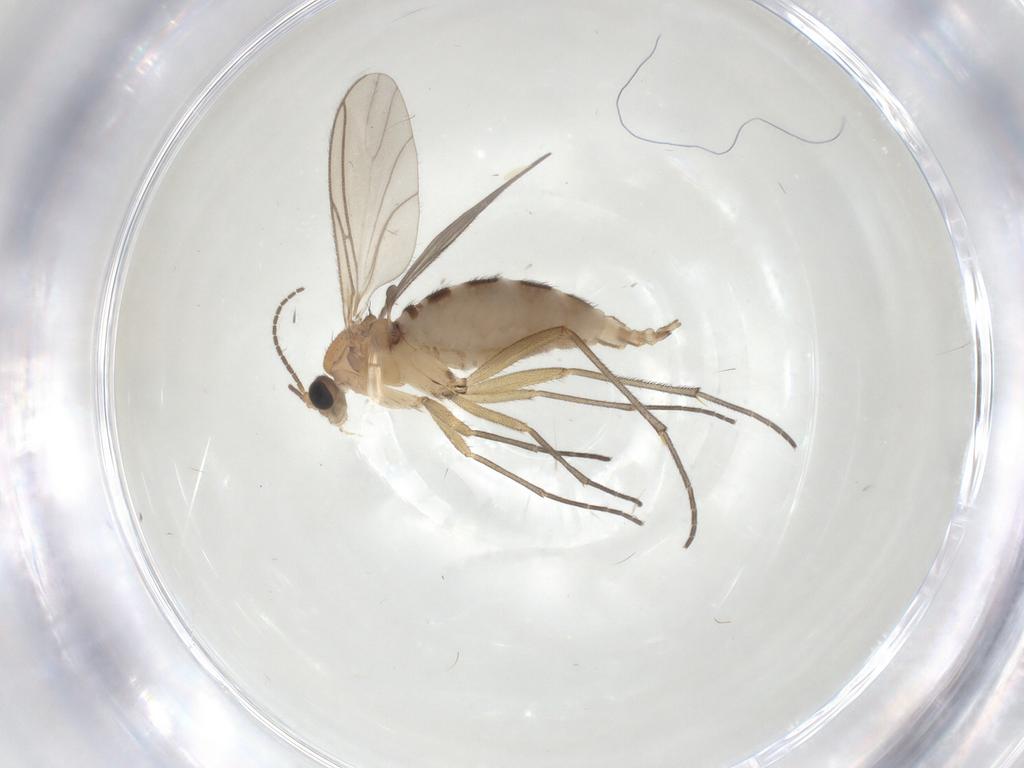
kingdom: Animalia
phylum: Arthropoda
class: Insecta
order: Diptera
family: Sciaridae
